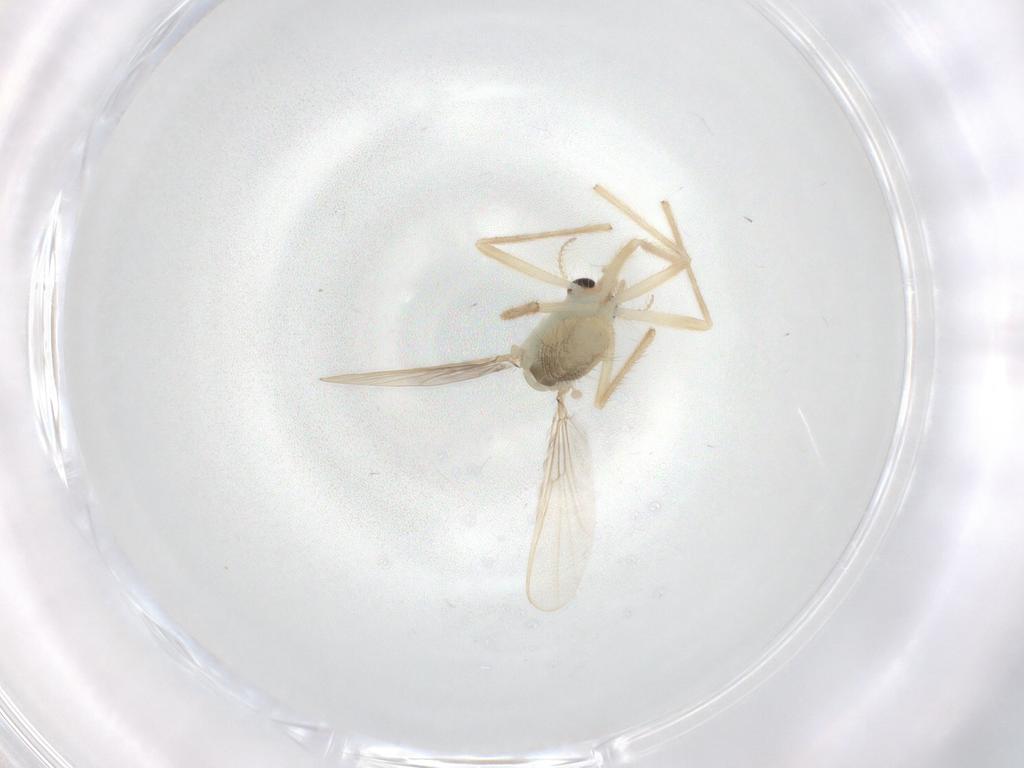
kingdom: Animalia
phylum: Arthropoda
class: Insecta
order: Diptera
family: Chironomidae
